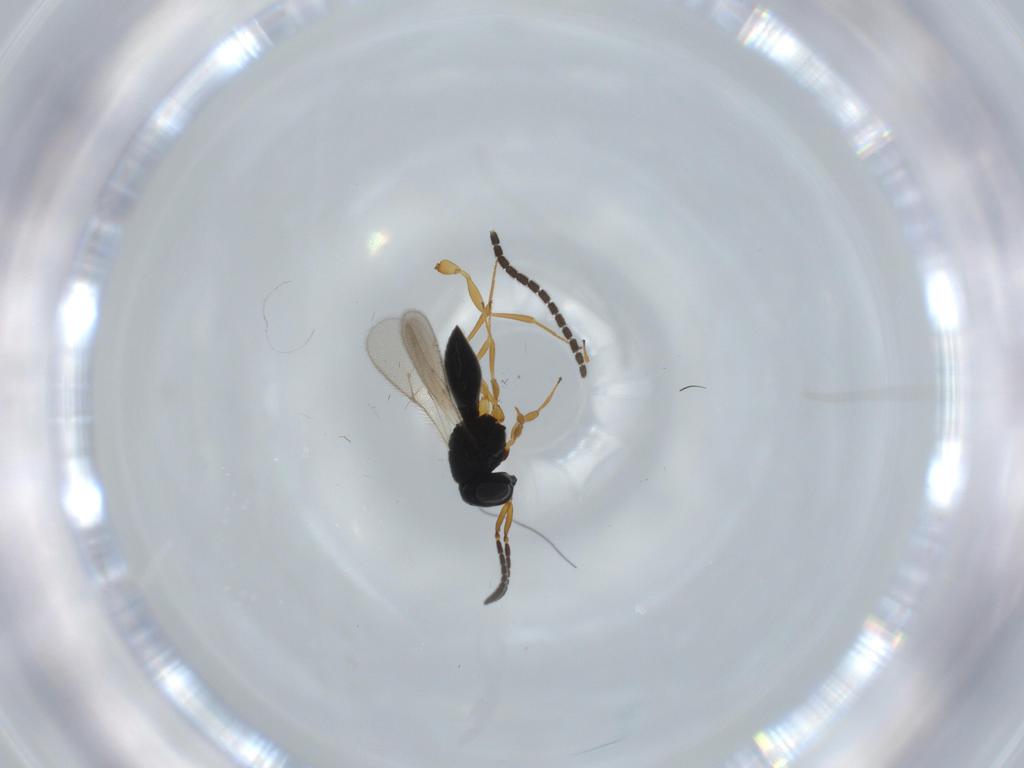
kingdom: Animalia
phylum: Arthropoda
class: Insecta
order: Hymenoptera
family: Scelionidae
